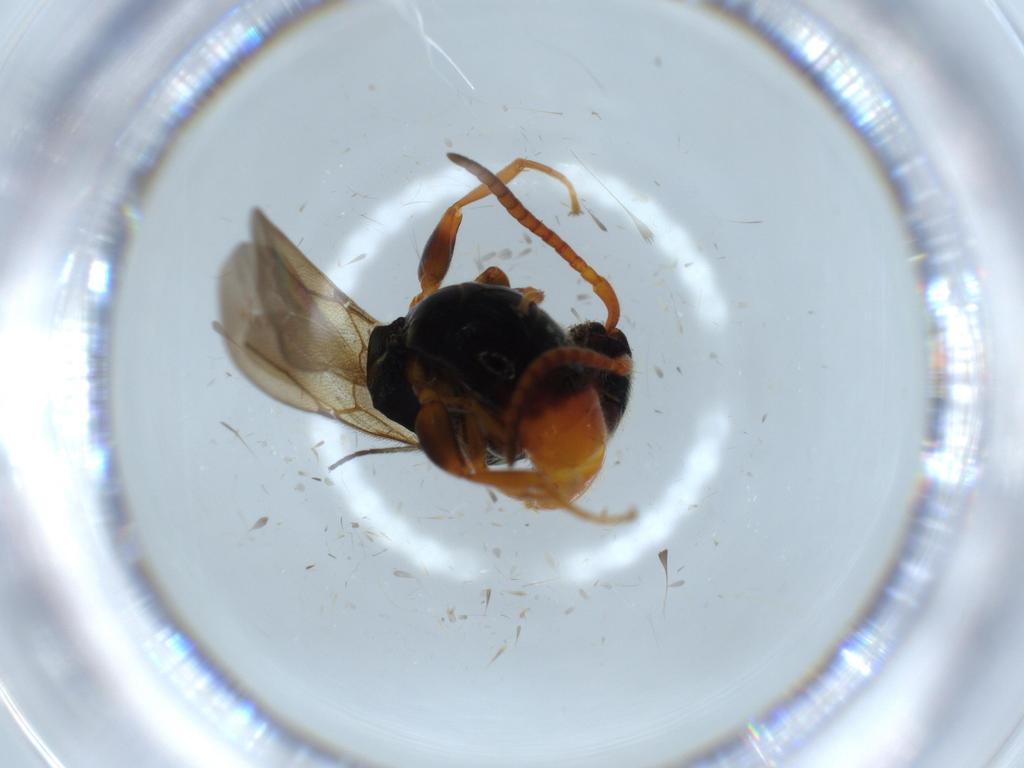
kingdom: Animalia
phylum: Arthropoda
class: Insecta
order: Hymenoptera
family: Bethylidae
